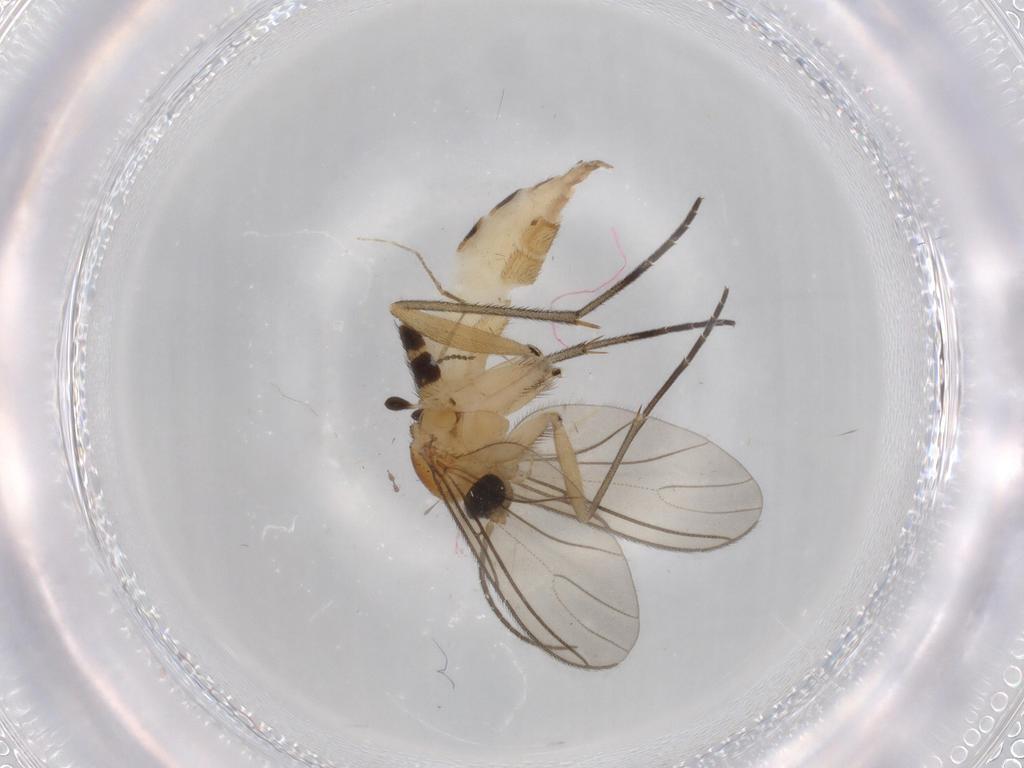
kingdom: Animalia
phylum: Arthropoda
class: Insecta
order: Diptera
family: Sciaridae
